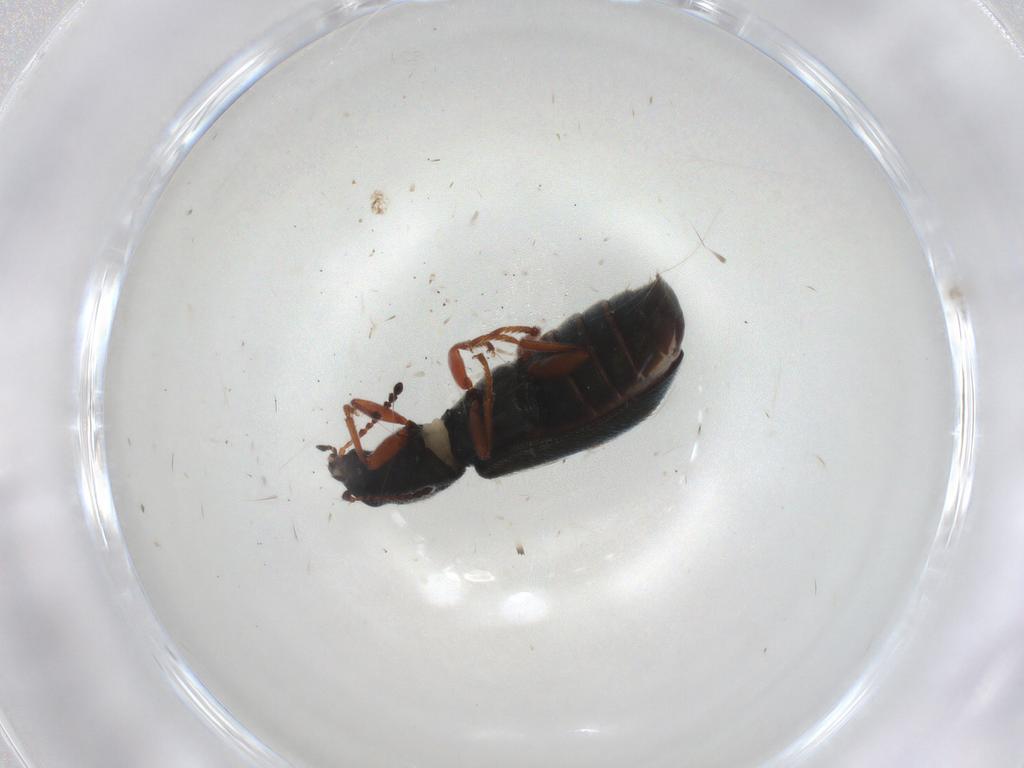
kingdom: Animalia
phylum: Arthropoda
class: Insecta
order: Coleoptera
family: Melyridae
